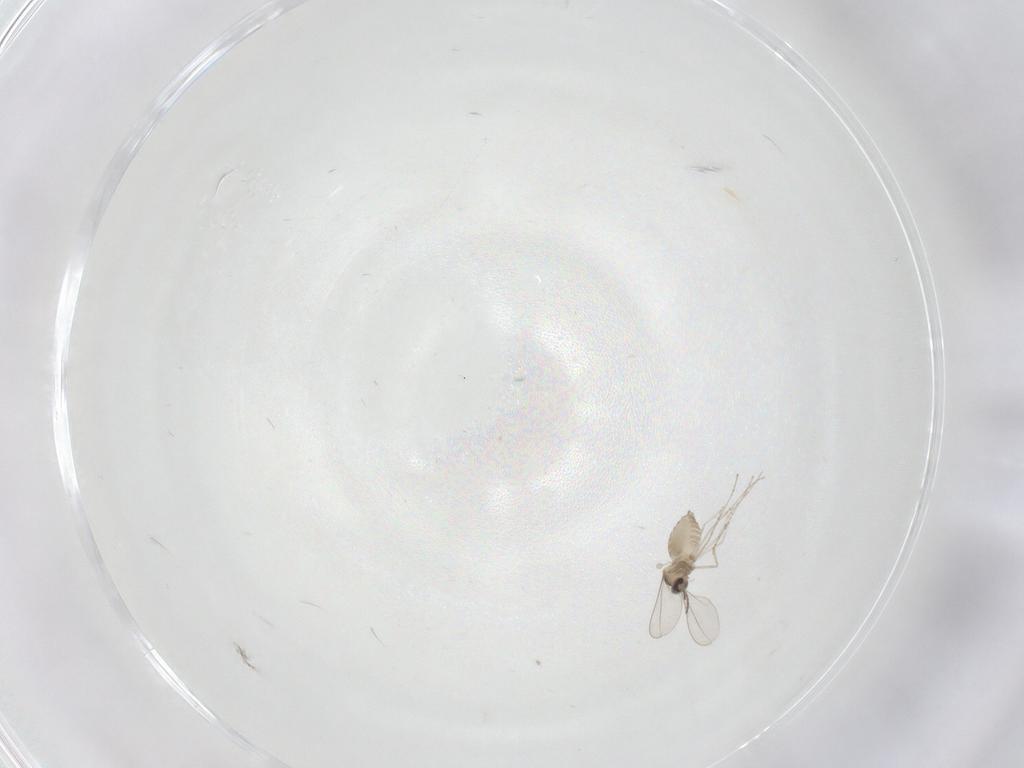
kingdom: Animalia
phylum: Arthropoda
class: Insecta
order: Diptera
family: Cecidomyiidae
